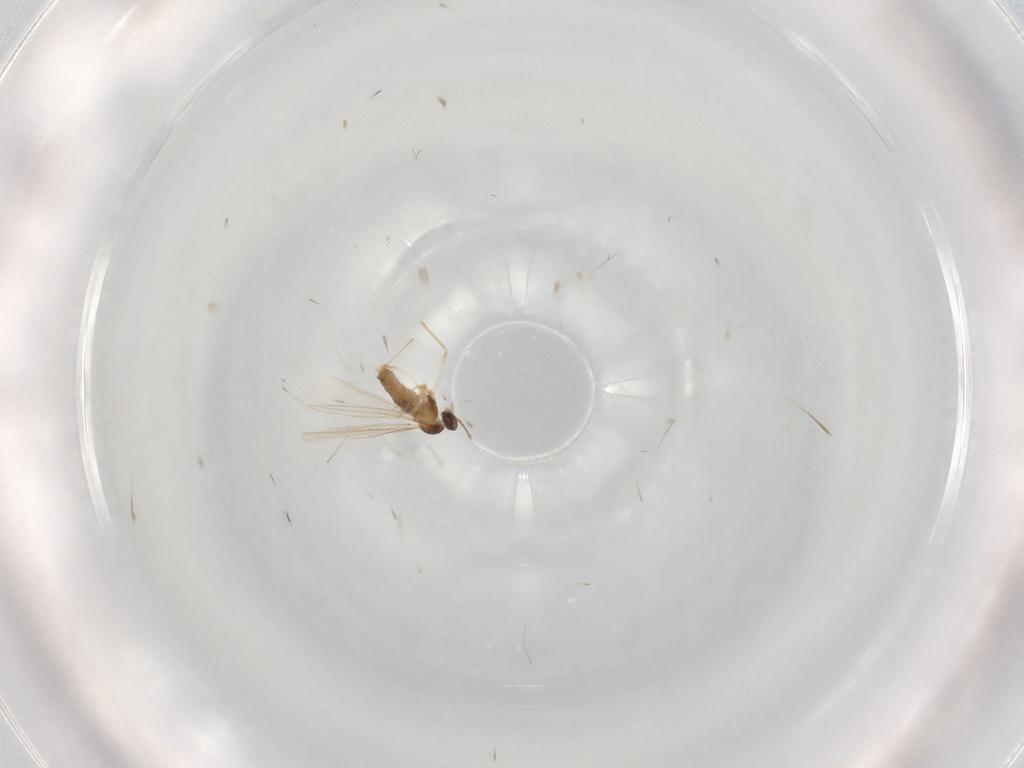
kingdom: Animalia
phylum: Arthropoda
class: Insecta
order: Diptera
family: Cecidomyiidae
